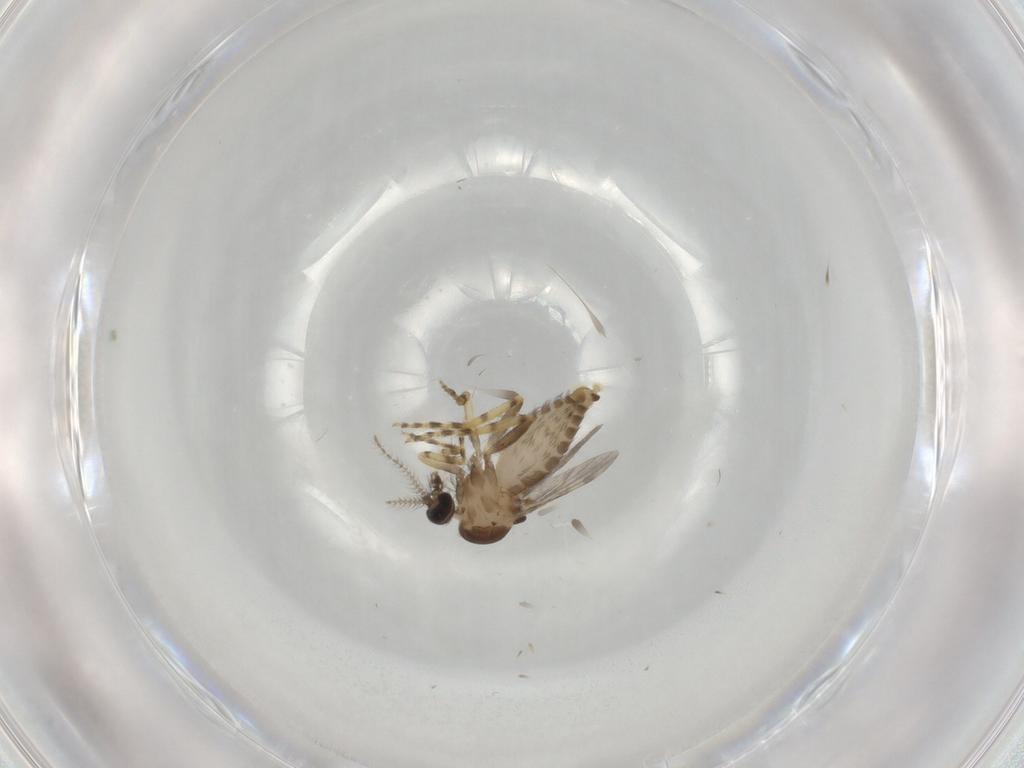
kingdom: Animalia
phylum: Arthropoda
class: Insecta
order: Diptera
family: Ceratopogonidae
